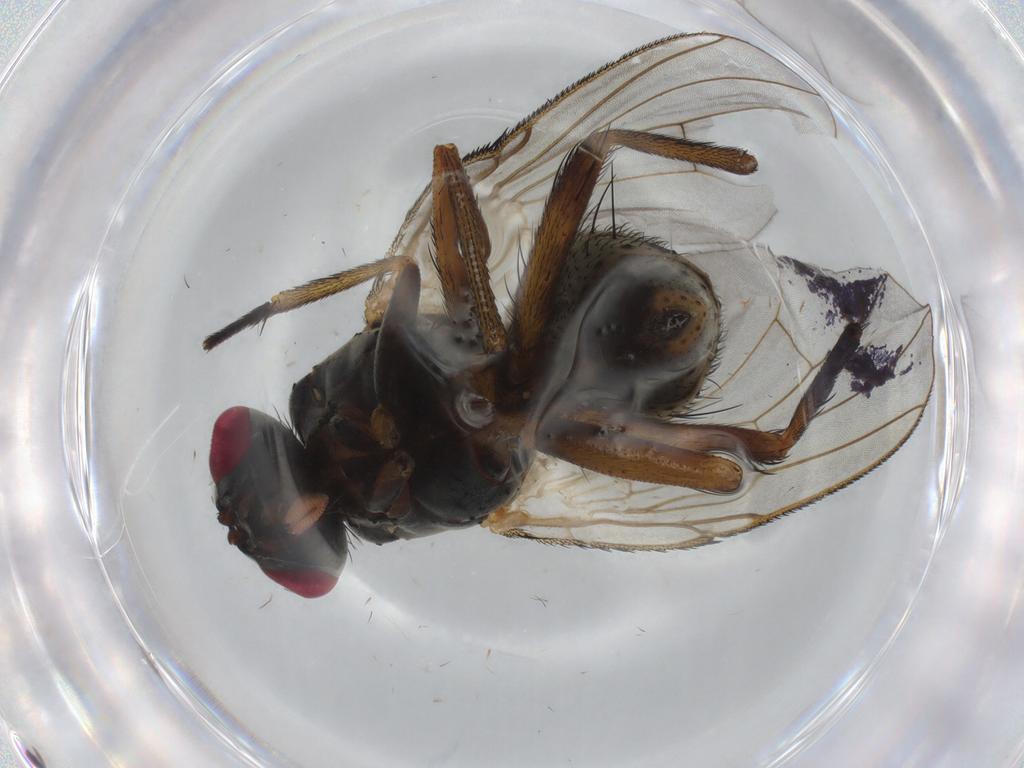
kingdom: Animalia
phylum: Arthropoda
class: Insecta
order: Diptera
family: Muscidae
